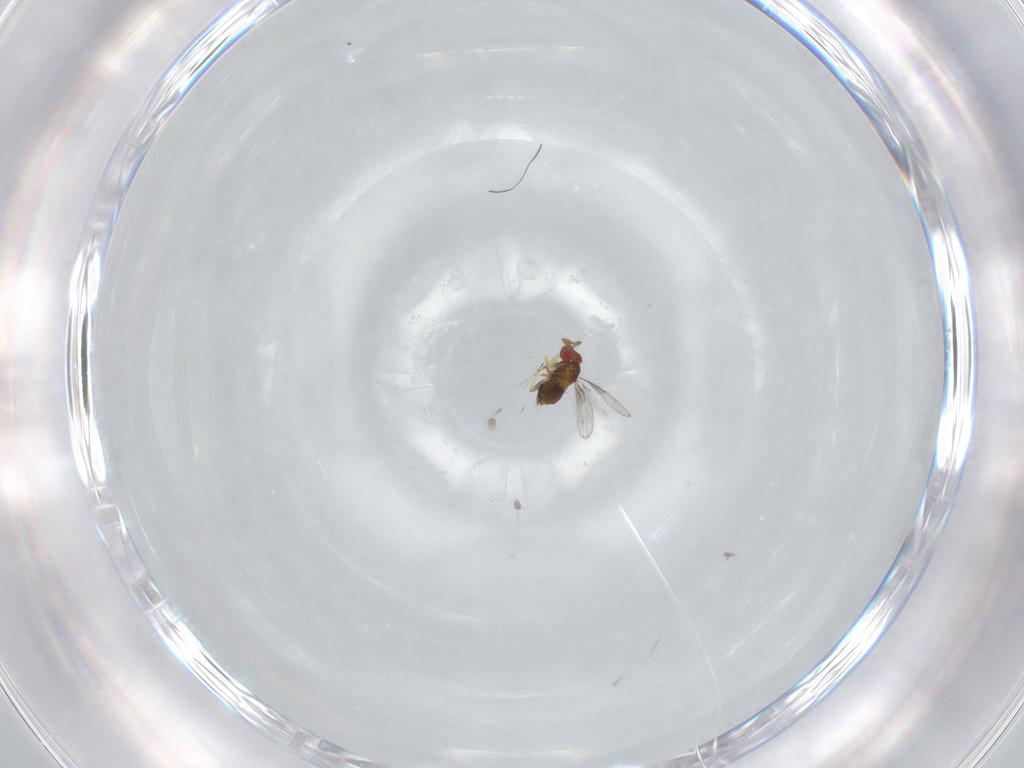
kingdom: Animalia
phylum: Arthropoda
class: Insecta
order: Hymenoptera
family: Trichogrammatidae
